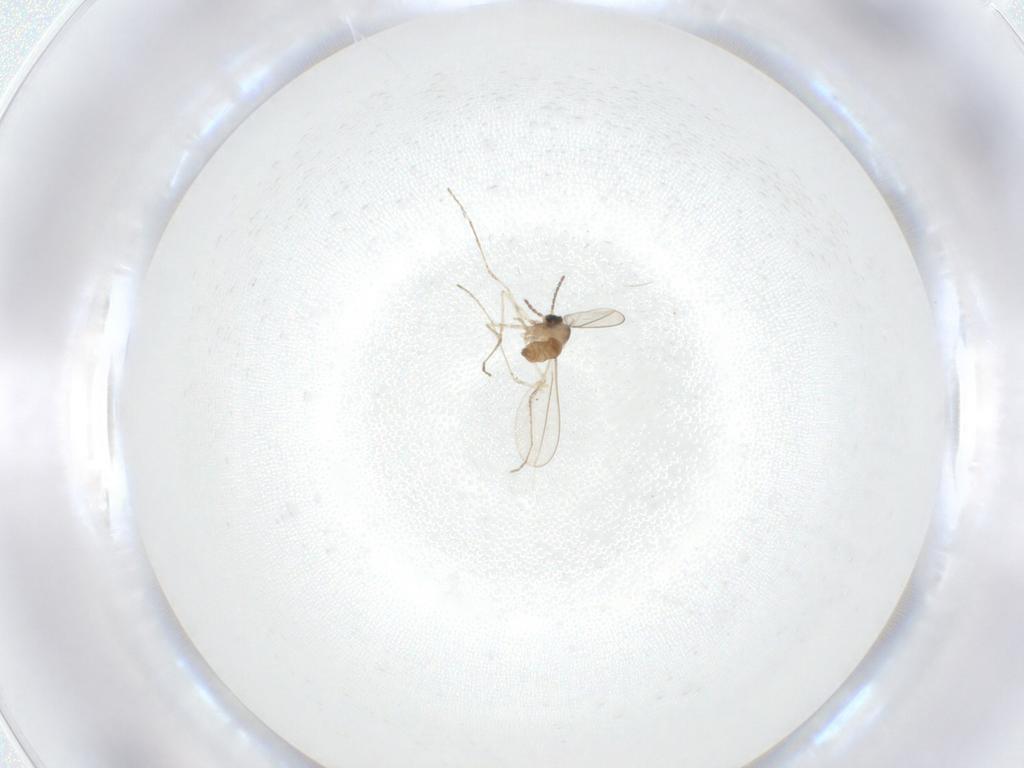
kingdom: Animalia
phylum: Arthropoda
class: Insecta
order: Diptera
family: Cecidomyiidae
